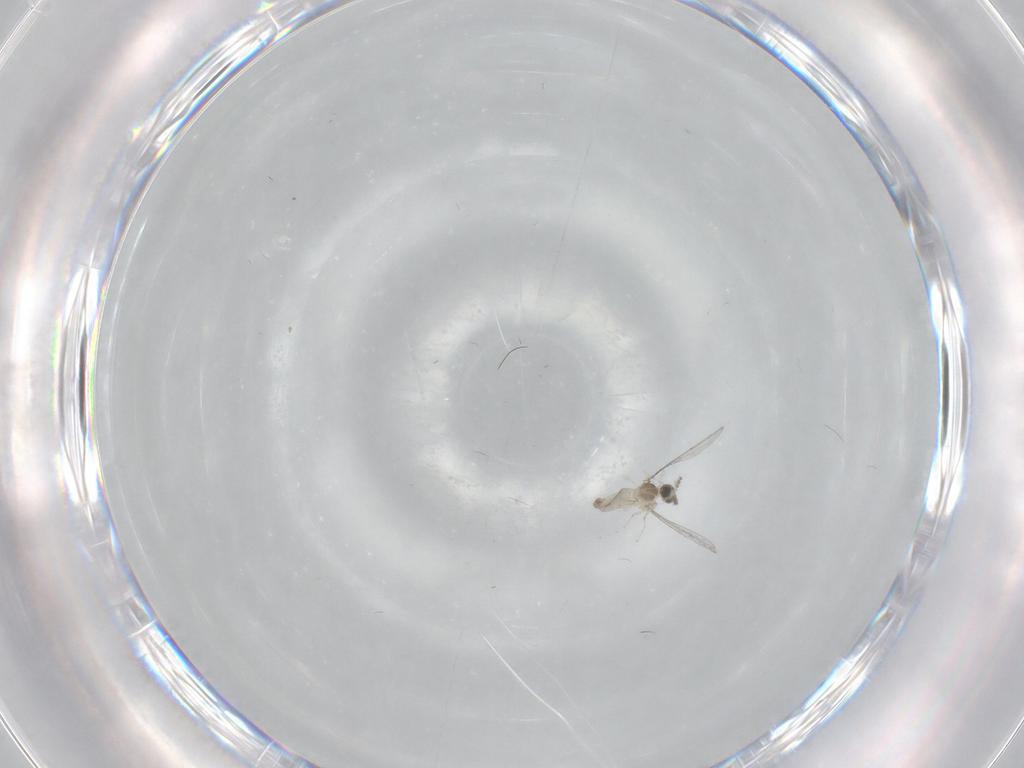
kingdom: Animalia
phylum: Arthropoda
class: Insecta
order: Diptera
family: Cecidomyiidae
